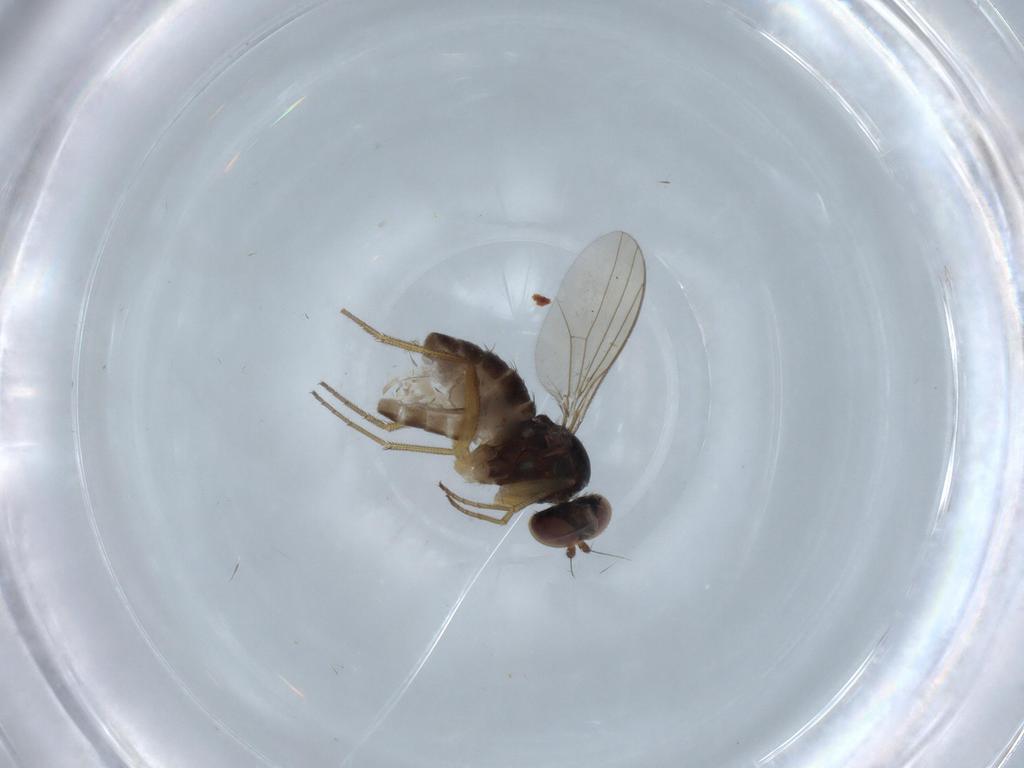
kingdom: Animalia
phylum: Arthropoda
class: Insecta
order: Diptera
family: Dolichopodidae
